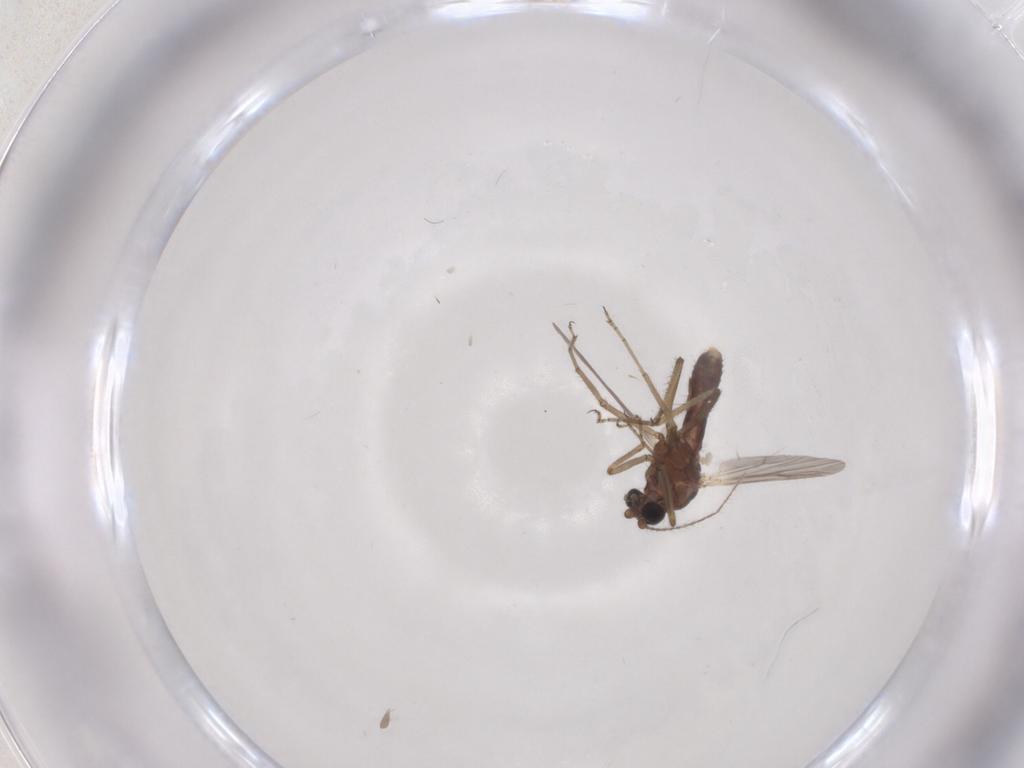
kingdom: Animalia
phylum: Arthropoda
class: Insecta
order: Diptera
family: Ceratopogonidae
